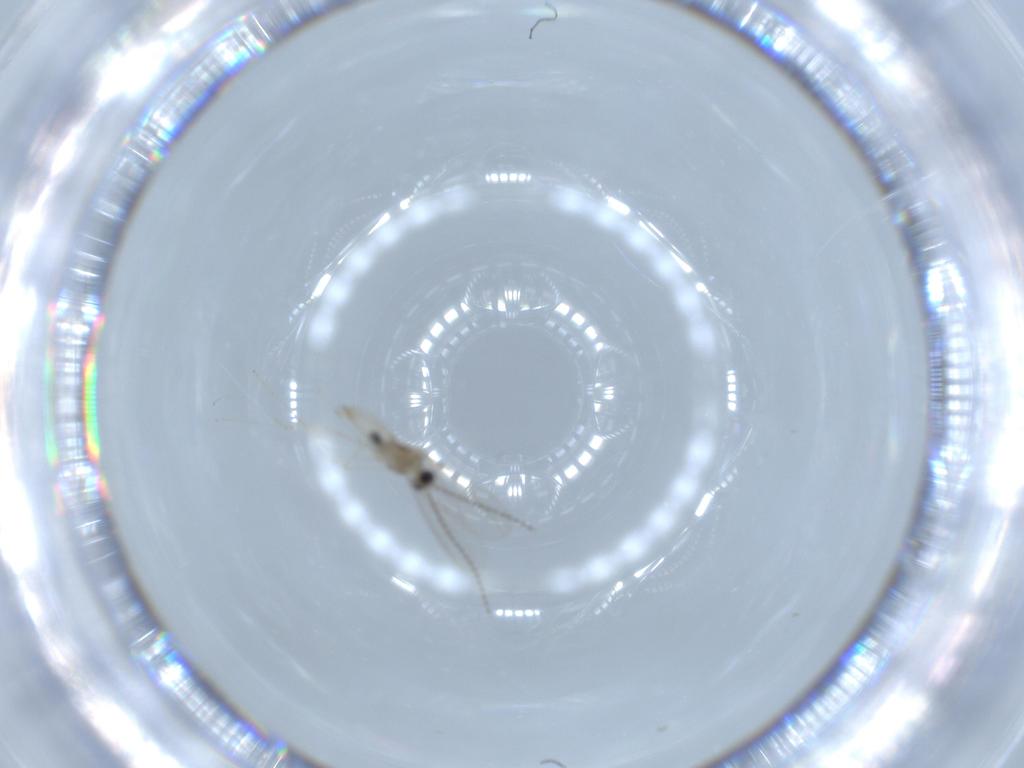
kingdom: Animalia
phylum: Arthropoda
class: Insecta
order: Diptera
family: Cecidomyiidae
